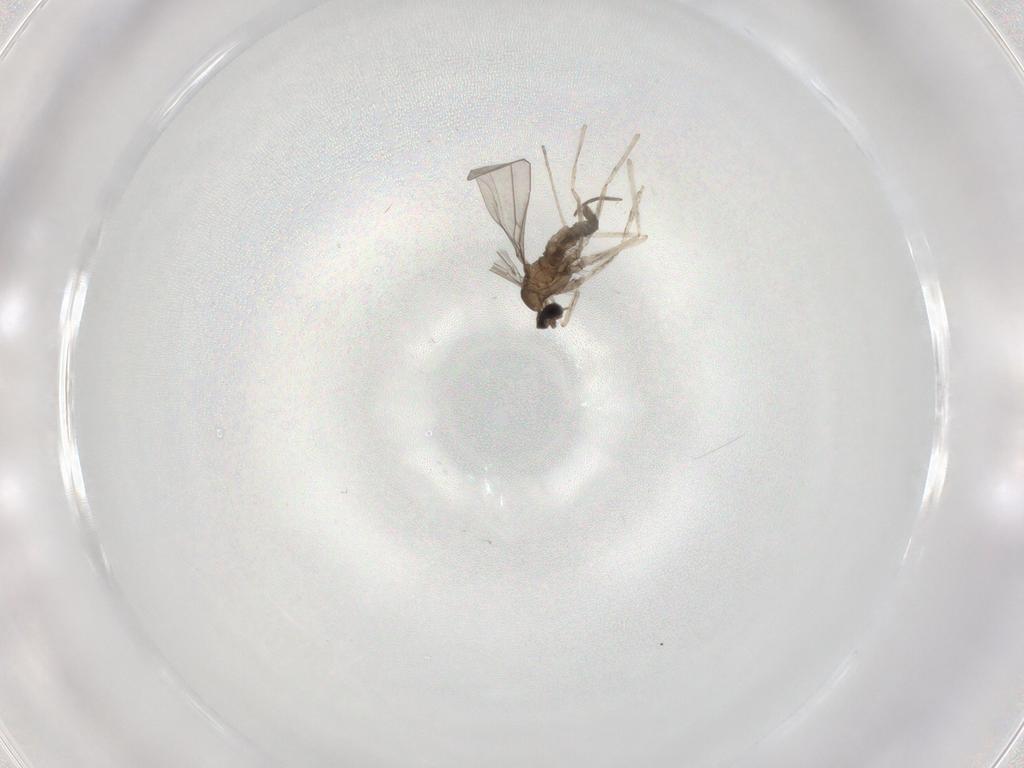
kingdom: Animalia
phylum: Arthropoda
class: Insecta
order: Diptera
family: Cecidomyiidae
